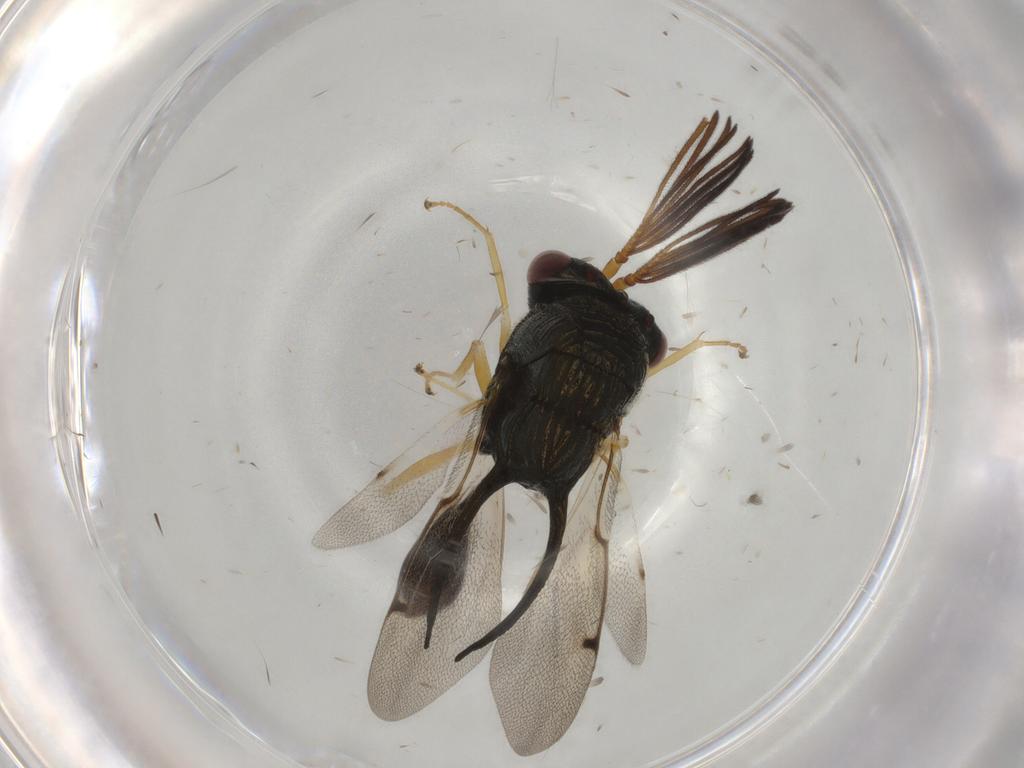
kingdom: Animalia
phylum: Arthropoda
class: Insecta
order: Hymenoptera
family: Formicidae
